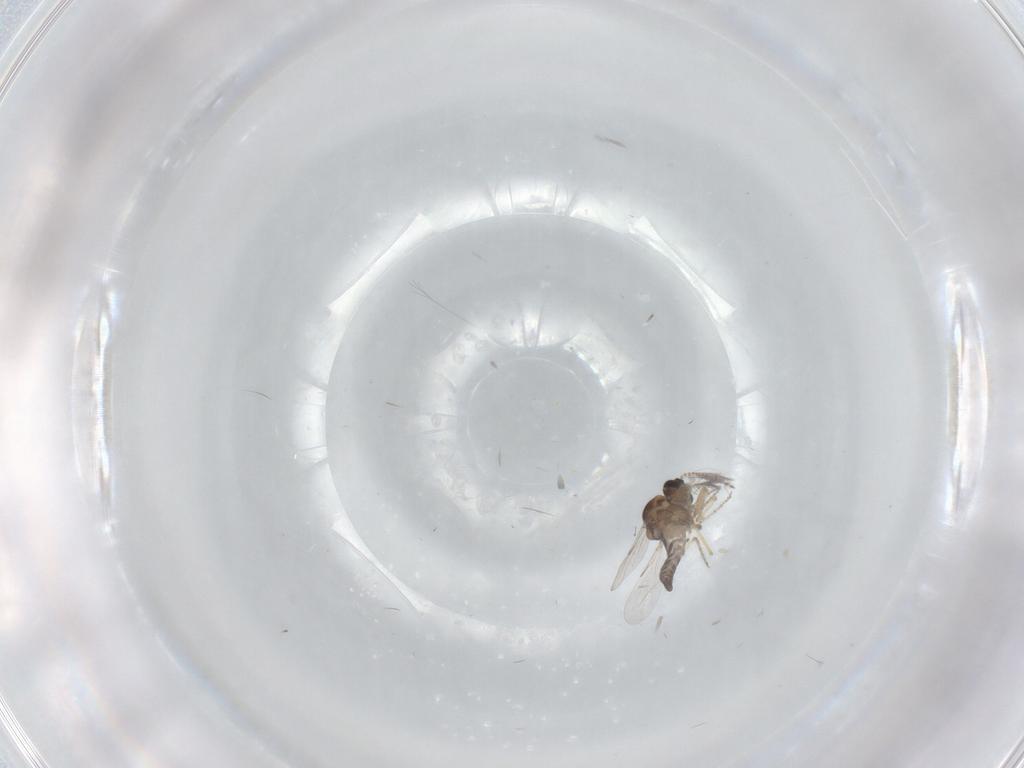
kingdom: Animalia
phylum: Arthropoda
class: Insecta
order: Diptera
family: Ceratopogonidae
